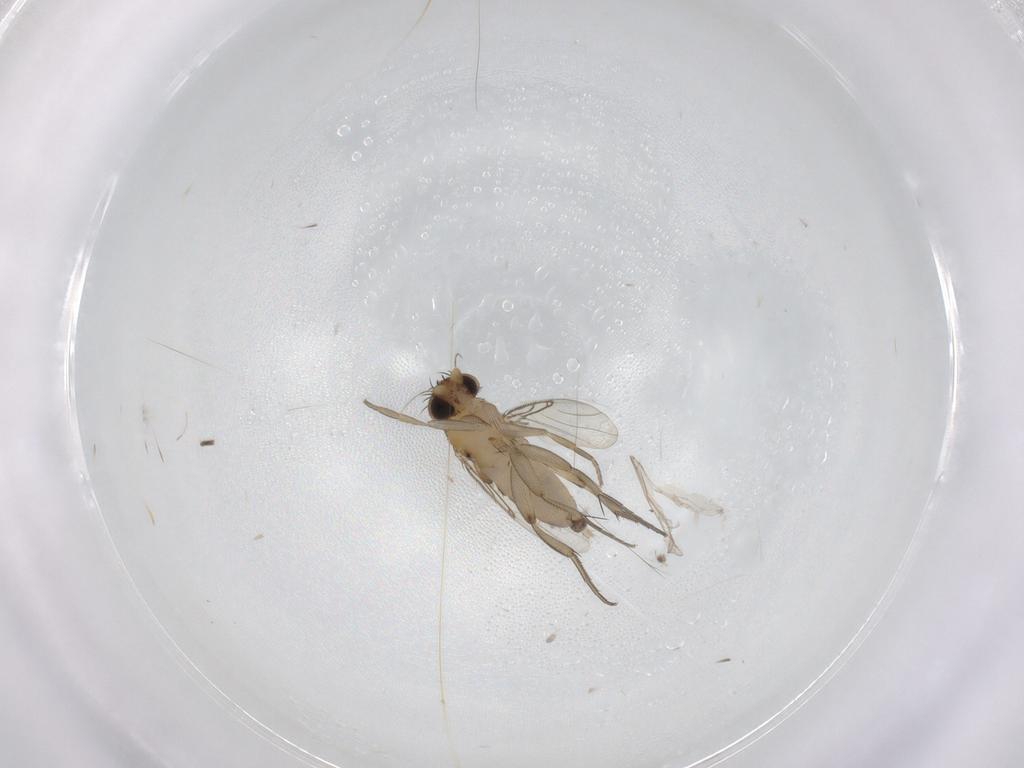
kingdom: Animalia
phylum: Arthropoda
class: Insecta
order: Diptera
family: Phoridae
